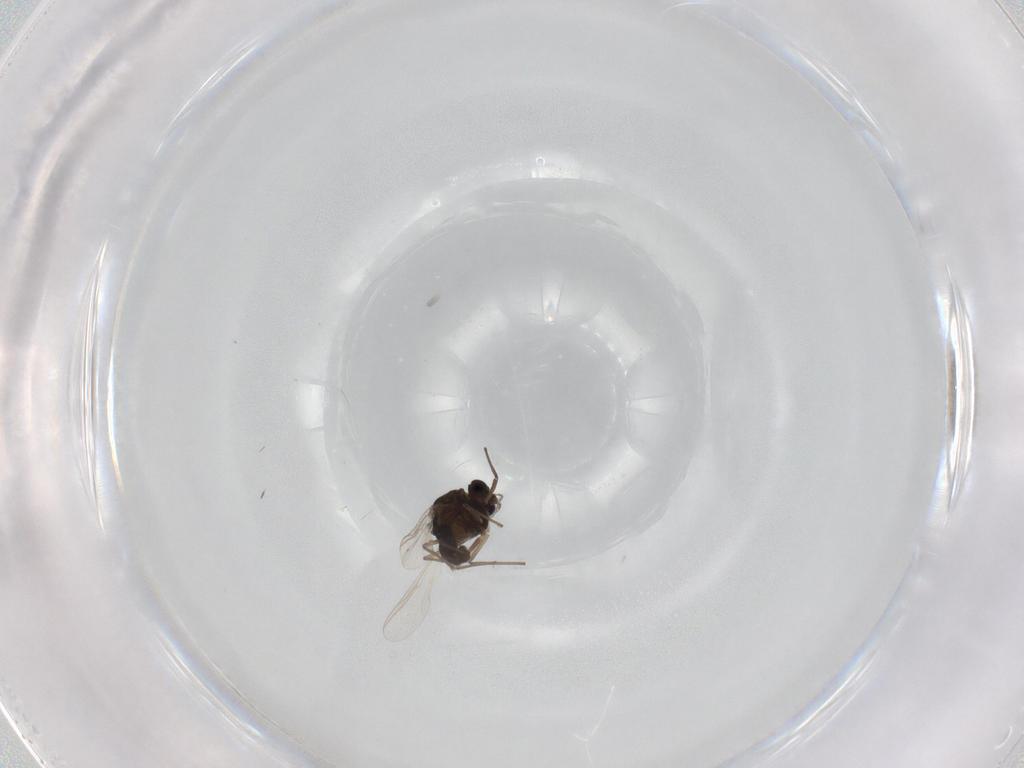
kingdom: Animalia
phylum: Arthropoda
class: Insecta
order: Diptera
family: Chironomidae
